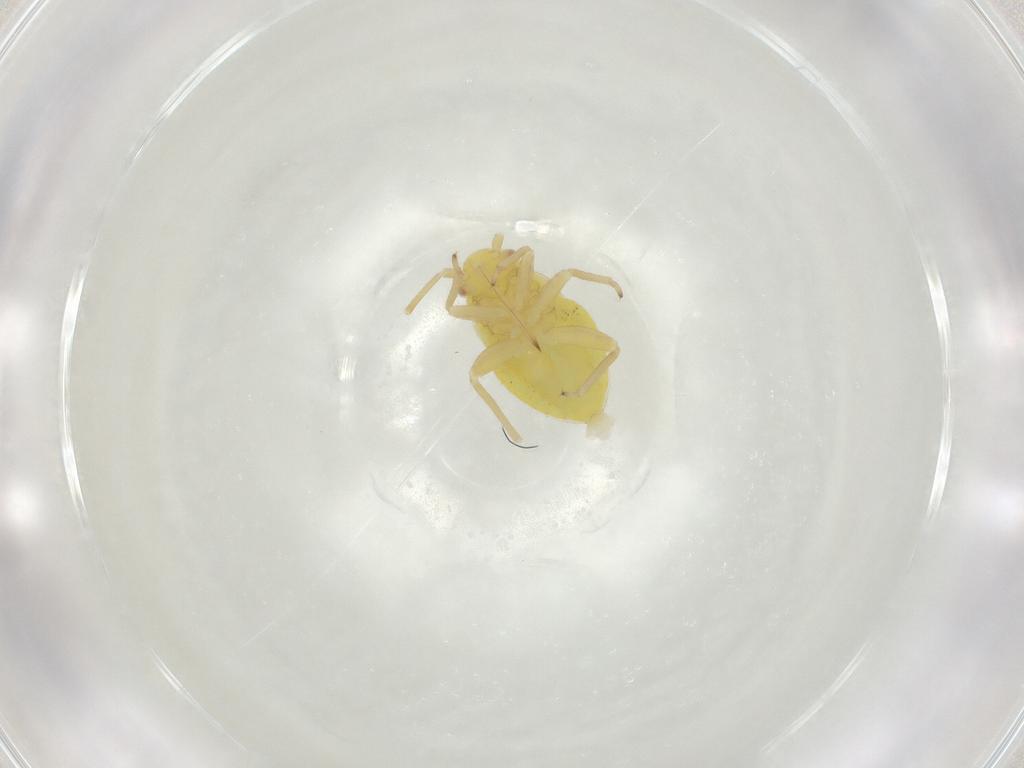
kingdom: Animalia
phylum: Arthropoda
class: Insecta
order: Hemiptera
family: Miridae
